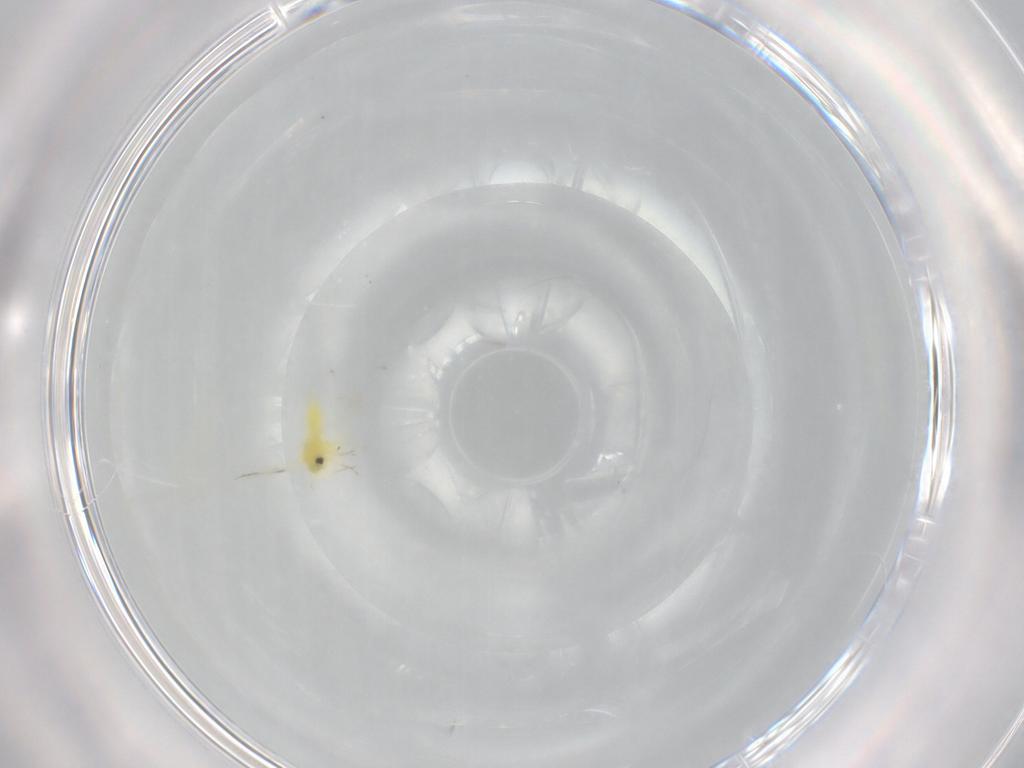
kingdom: Animalia
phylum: Arthropoda
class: Insecta
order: Hemiptera
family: Aleyrodidae
